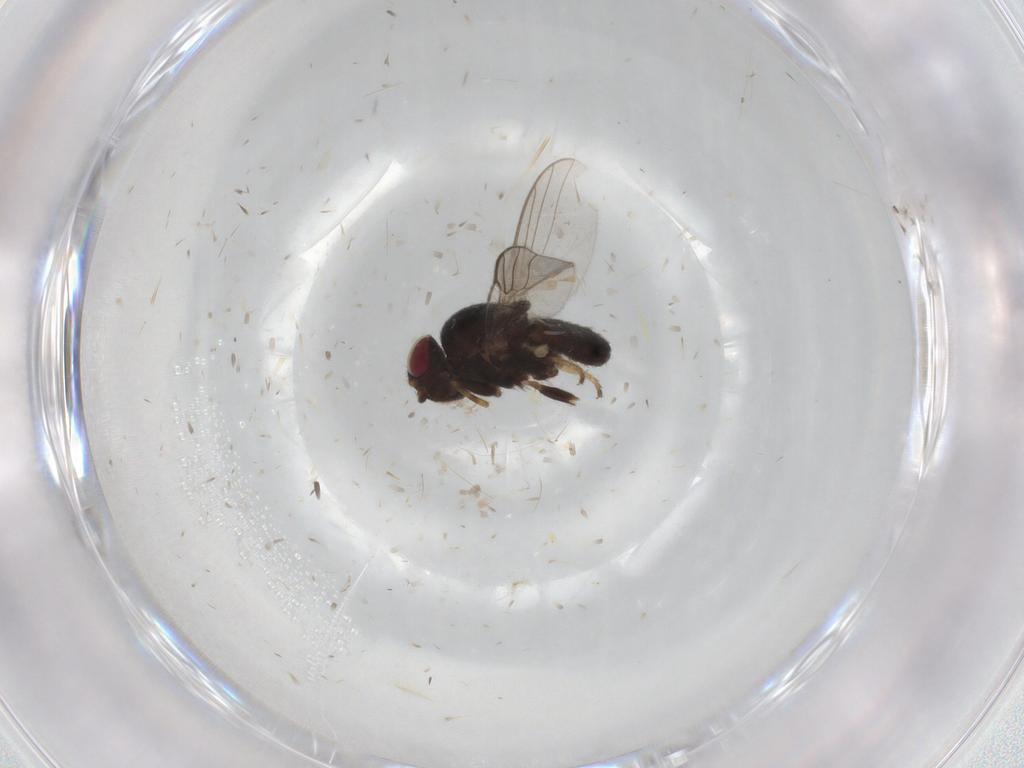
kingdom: Animalia
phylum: Arthropoda
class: Insecta
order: Diptera
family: Chloropidae
